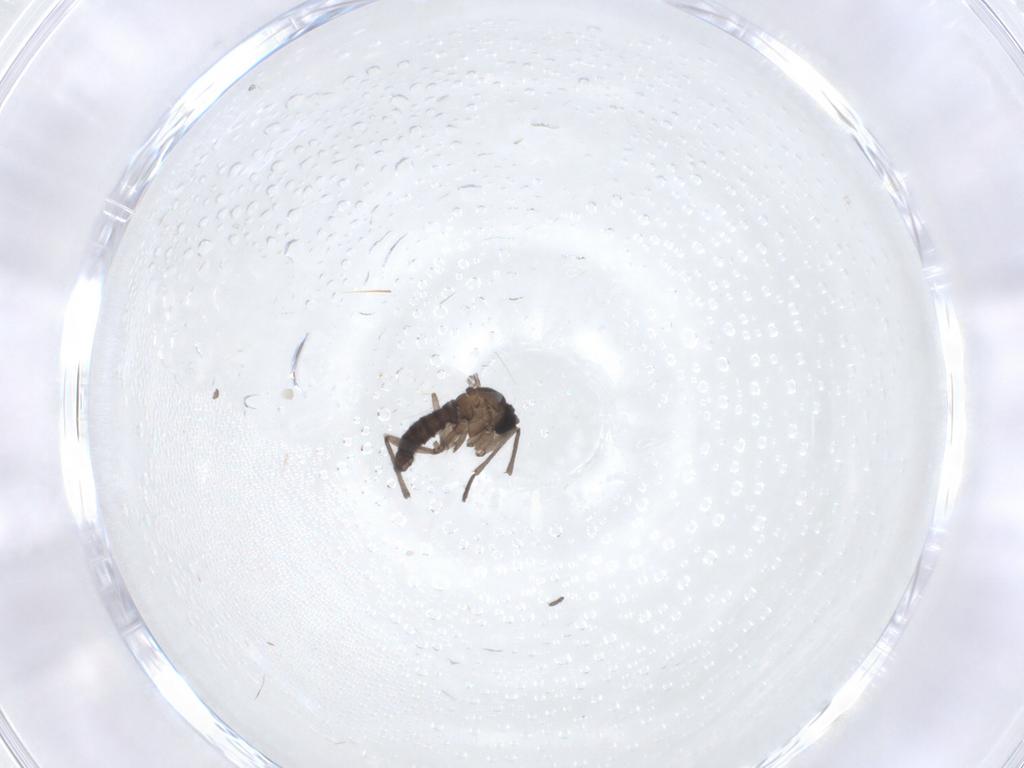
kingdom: Animalia
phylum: Arthropoda
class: Insecta
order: Diptera
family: Sciaridae
